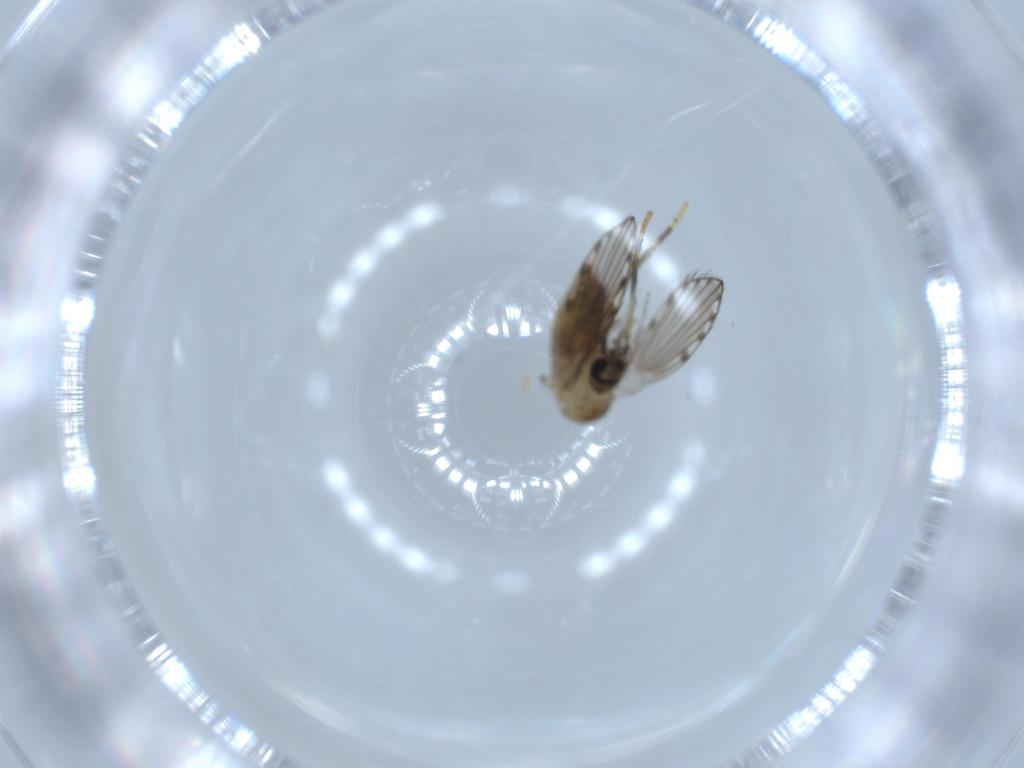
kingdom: Animalia
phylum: Arthropoda
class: Insecta
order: Diptera
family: Psychodidae
